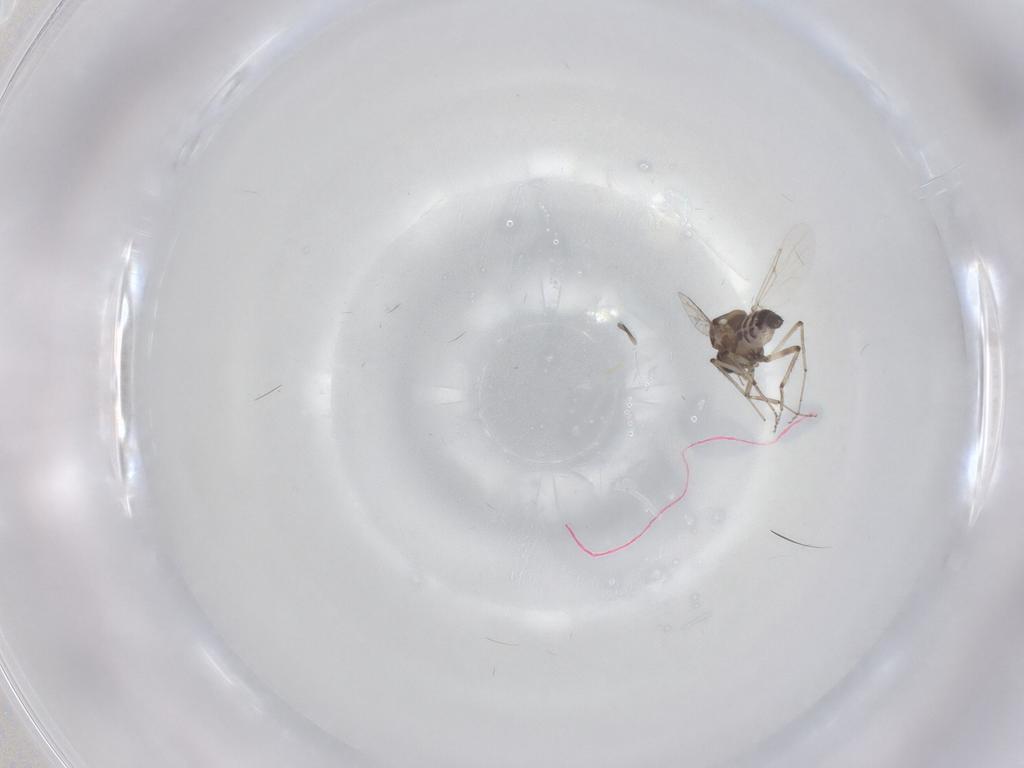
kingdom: Animalia
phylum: Arthropoda
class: Insecta
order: Diptera
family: Ceratopogonidae
